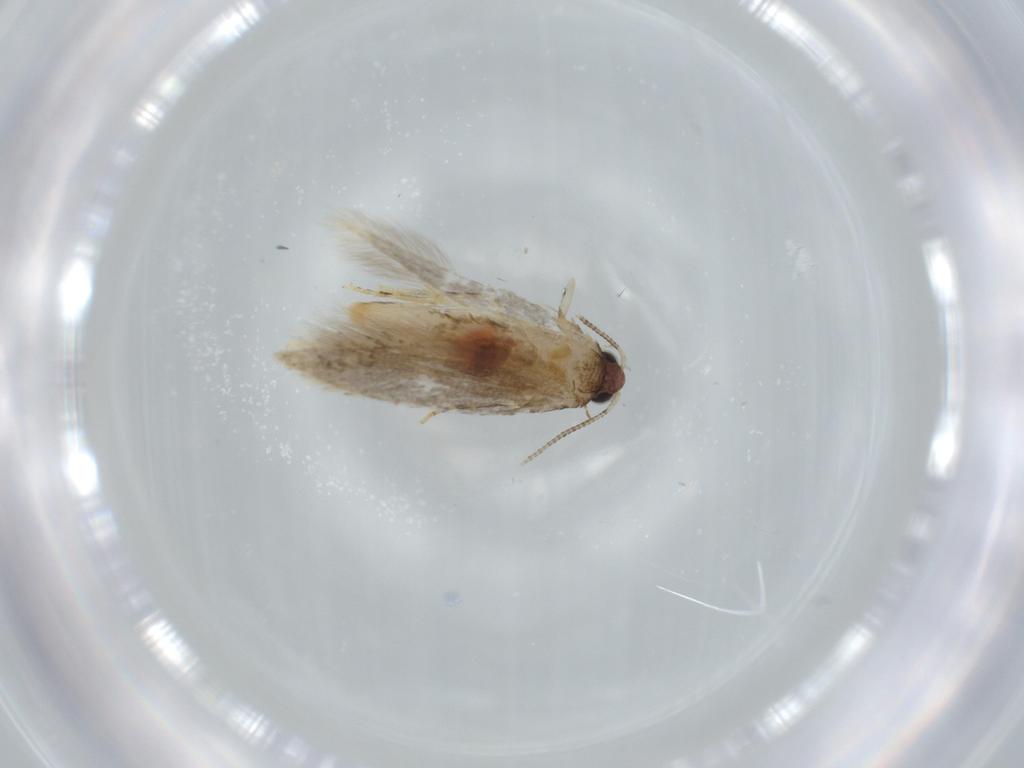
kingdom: Animalia
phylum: Arthropoda
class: Insecta
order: Lepidoptera
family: Tineidae
